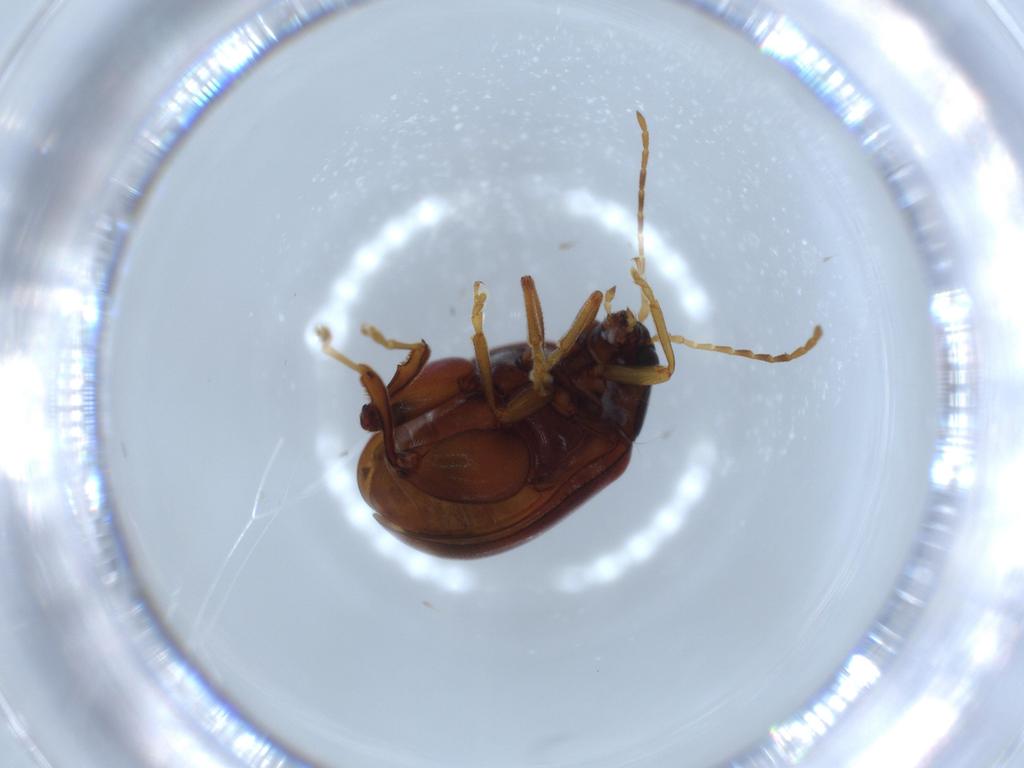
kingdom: Animalia
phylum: Arthropoda
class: Insecta
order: Coleoptera
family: Chrysomelidae
